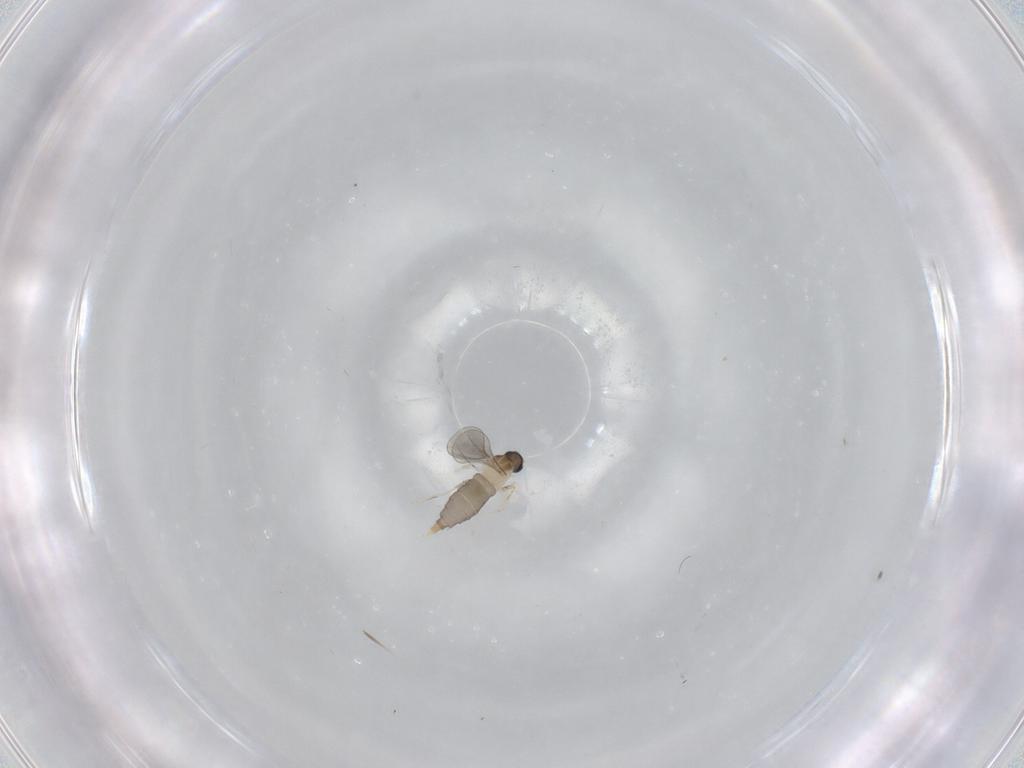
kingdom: Animalia
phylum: Arthropoda
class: Insecta
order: Diptera
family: Cecidomyiidae
